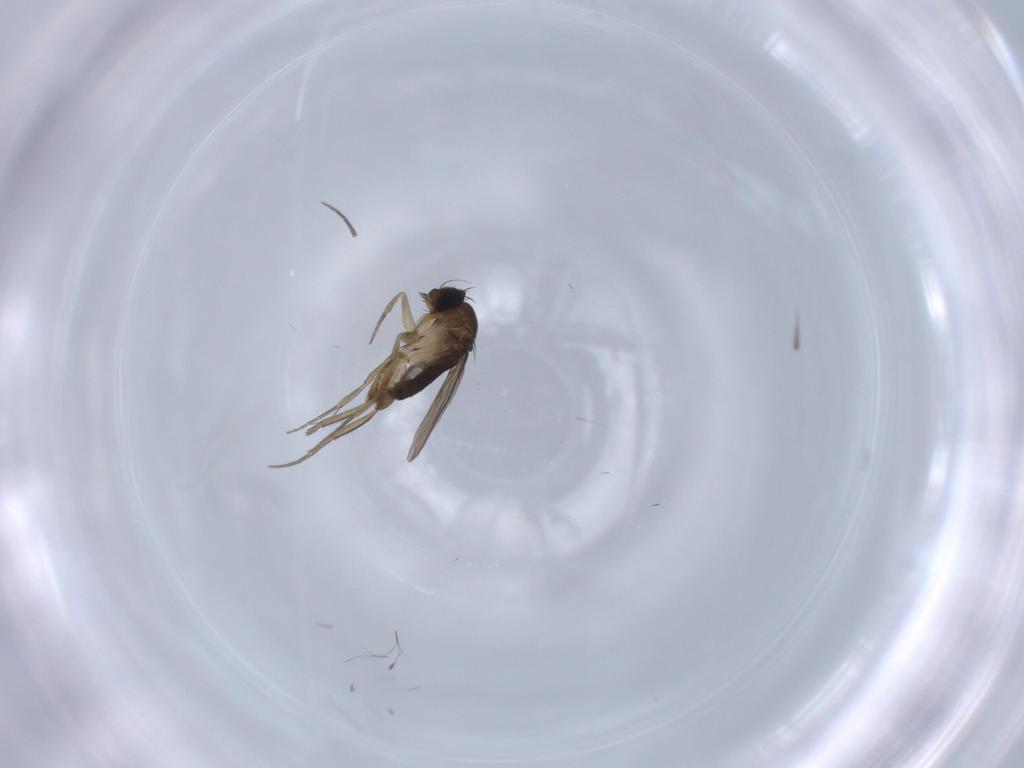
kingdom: Animalia
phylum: Arthropoda
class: Insecta
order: Diptera
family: Phoridae
